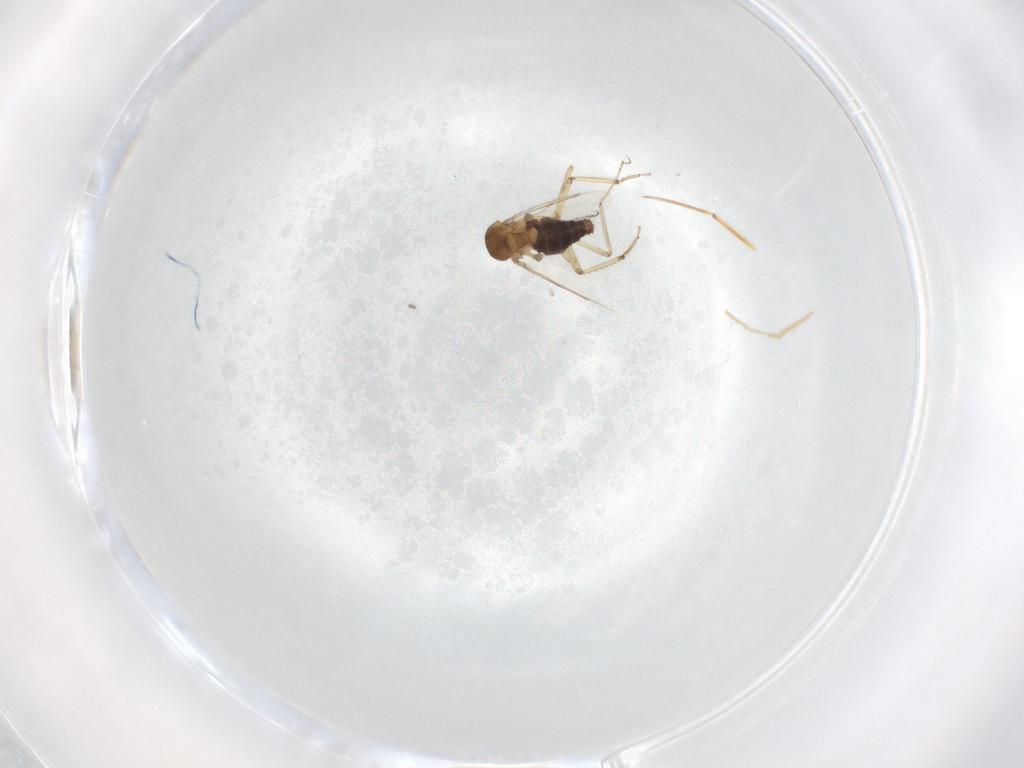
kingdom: Animalia
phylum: Arthropoda
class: Insecta
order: Diptera
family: Ceratopogonidae
